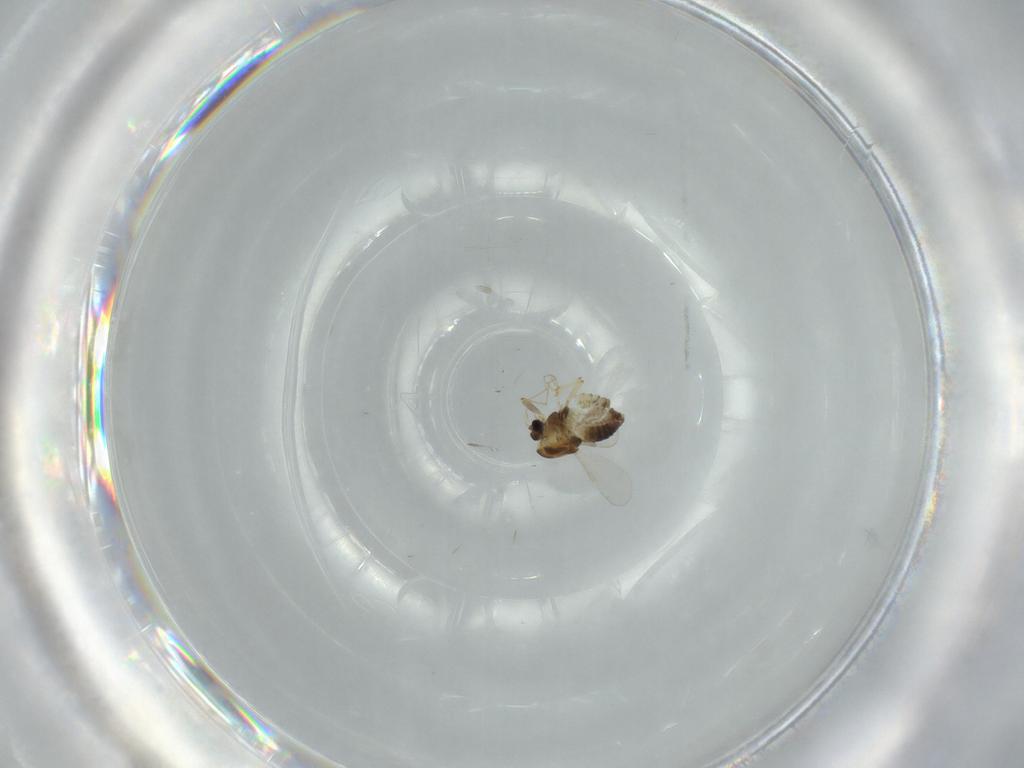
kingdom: Animalia
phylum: Arthropoda
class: Insecta
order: Diptera
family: Chironomidae
